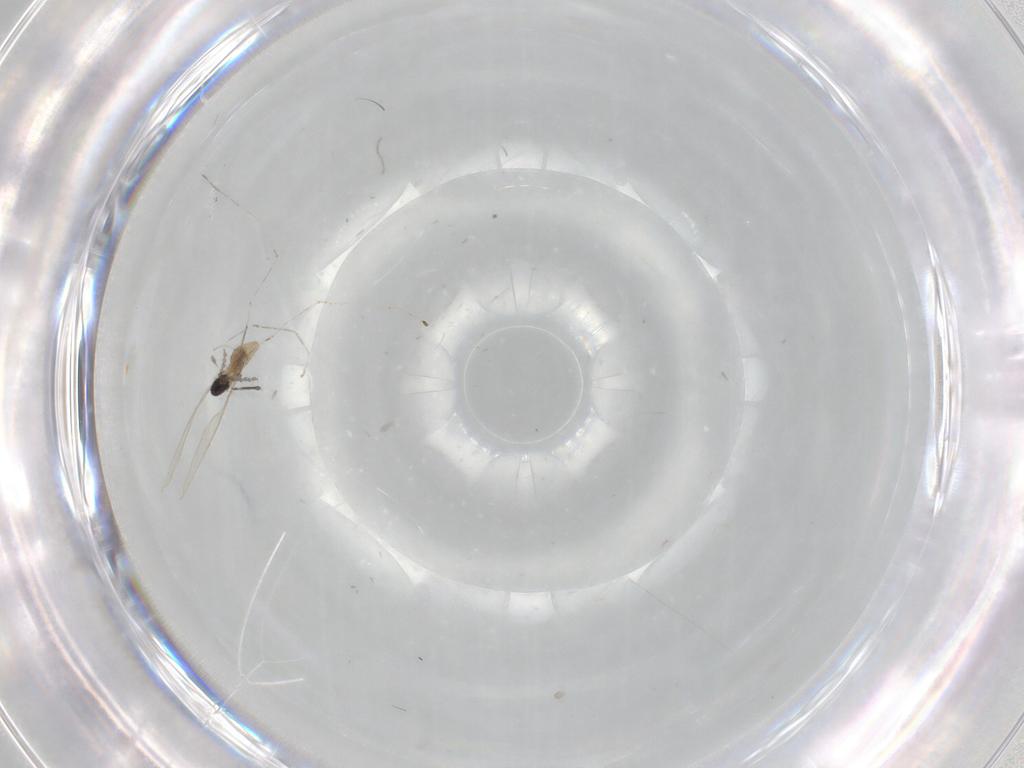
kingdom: Animalia
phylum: Arthropoda
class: Insecta
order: Diptera
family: Cecidomyiidae
